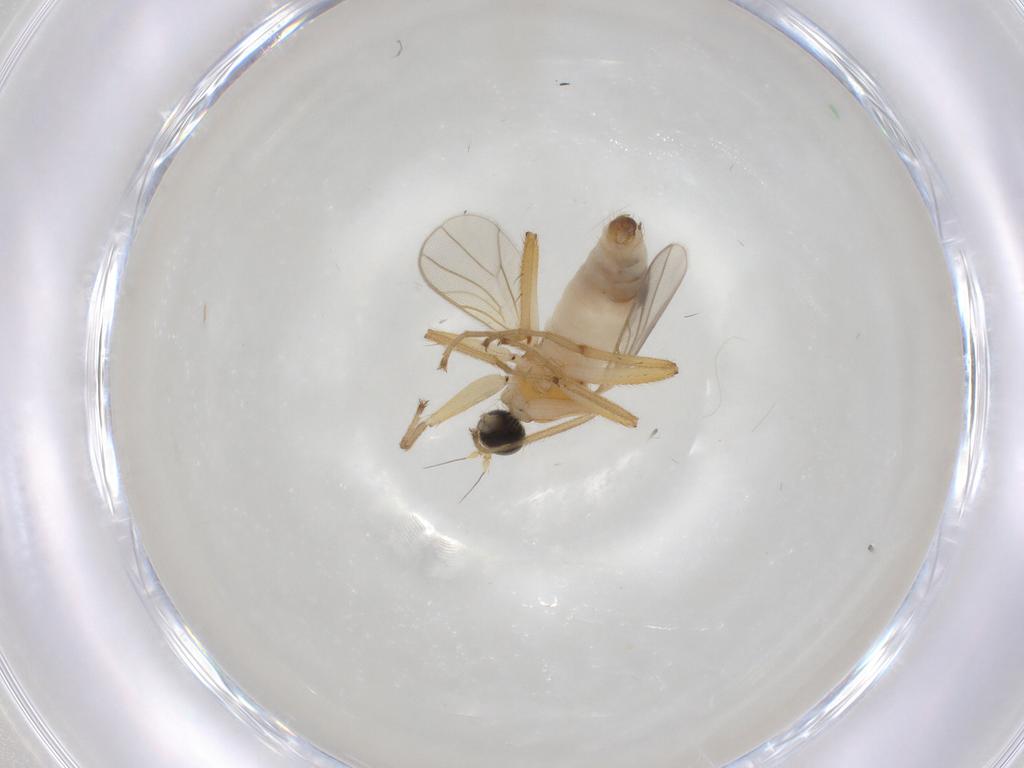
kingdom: Animalia
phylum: Arthropoda
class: Insecta
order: Diptera
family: Hybotidae
